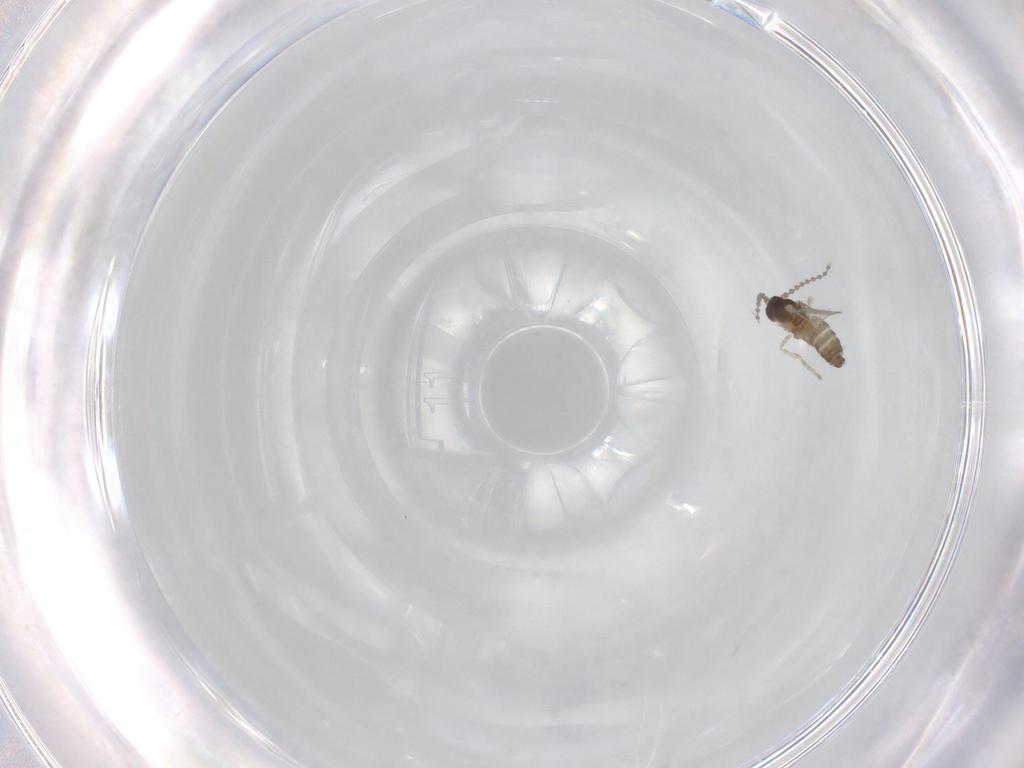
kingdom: Animalia
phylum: Arthropoda
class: Insecta
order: Diptera
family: Cecidomyiidae
